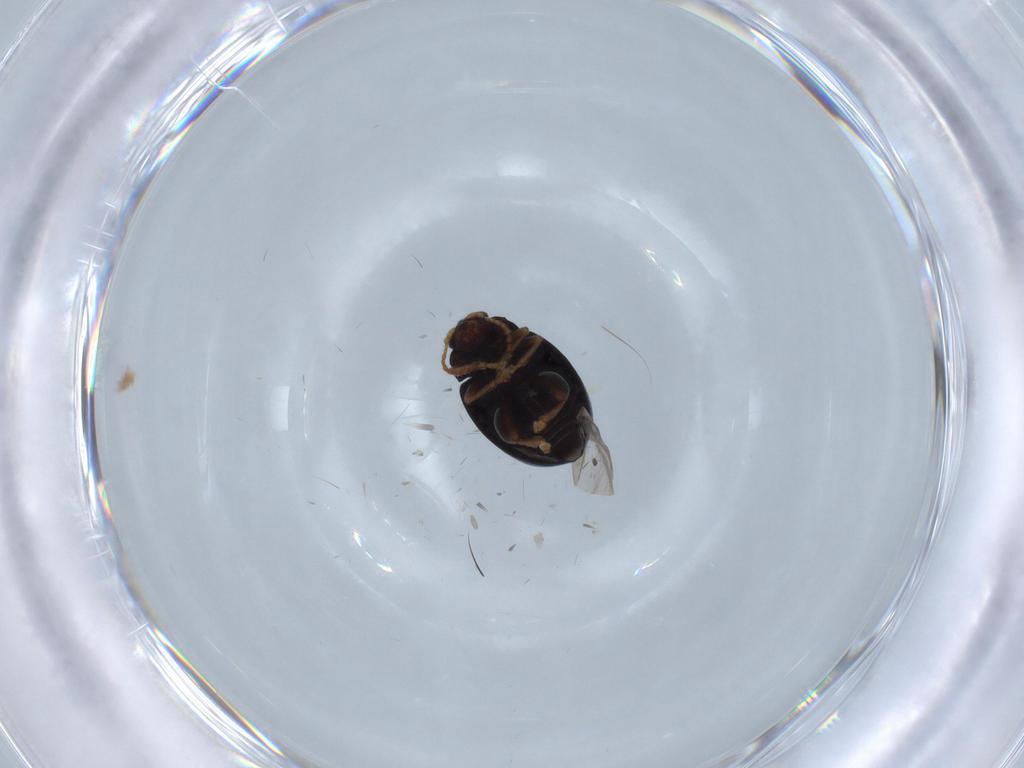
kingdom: Animalia
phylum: Arthropoda
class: Insecta
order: Coleoptera
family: Chrysomelidae
